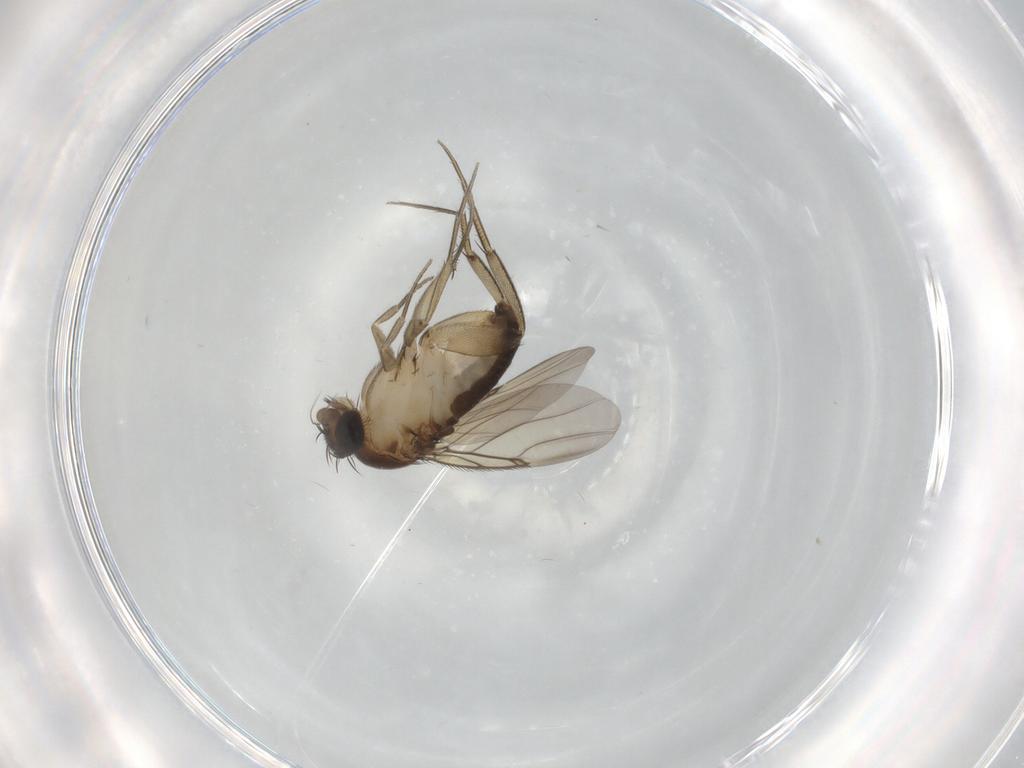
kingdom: Animalia
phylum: Arthropoda
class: Insecta
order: Diptera
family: Phoridae
